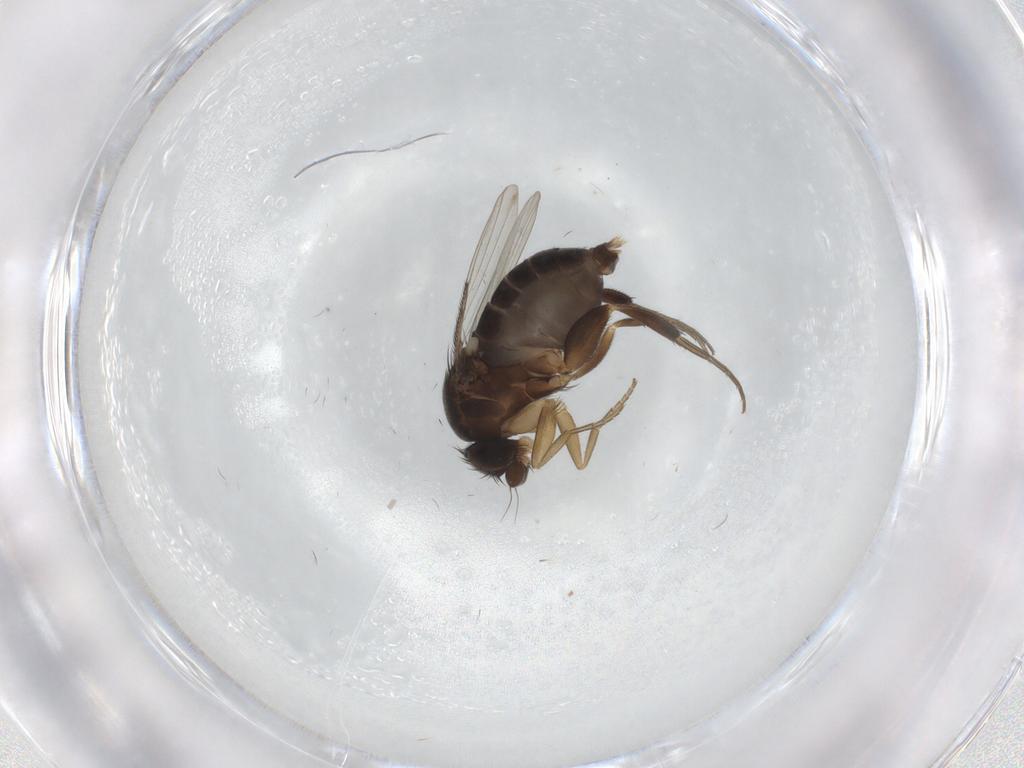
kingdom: Animalia
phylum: Arthropoda
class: Insecta
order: Diptera
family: Phoridae
